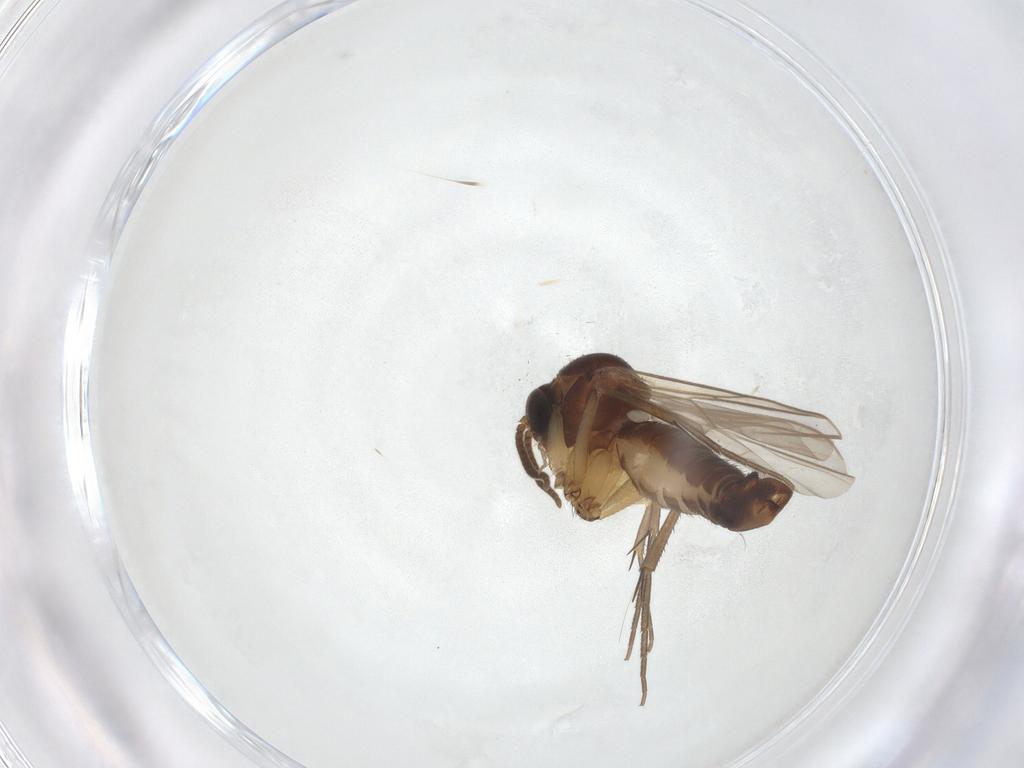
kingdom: Animalia
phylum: Arthropoda
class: Insecta
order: Diptera
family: Mycetophilidae
